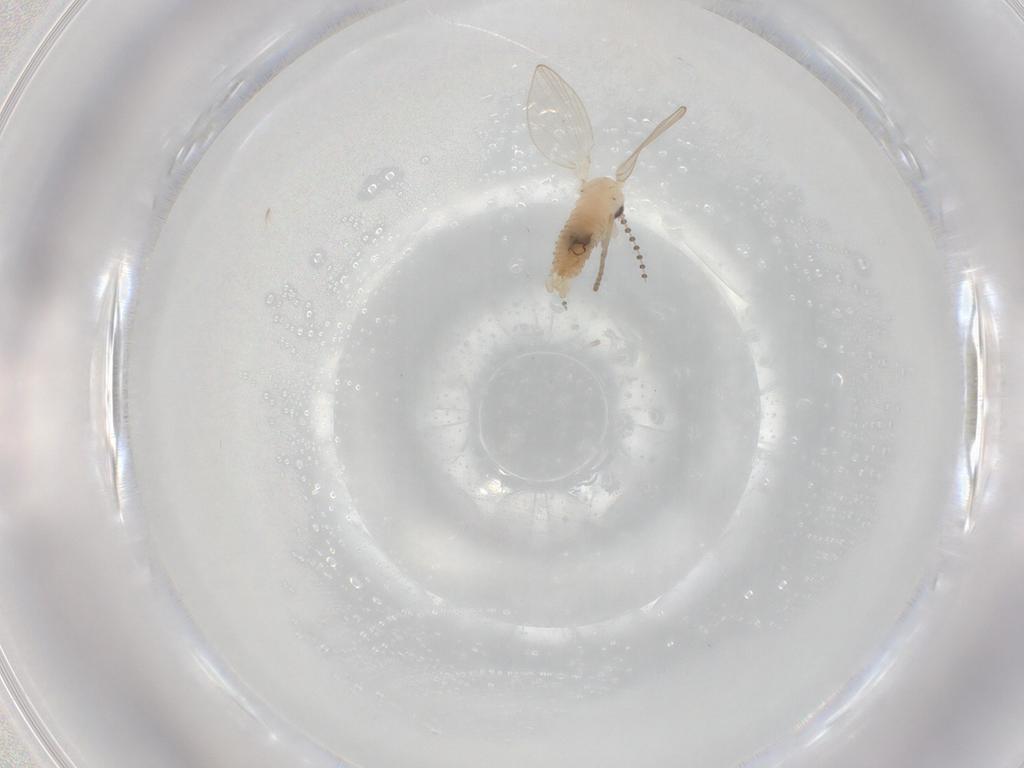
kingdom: Animalia
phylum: Arthropoda
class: Insecta
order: Diptera
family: Psychodidae
